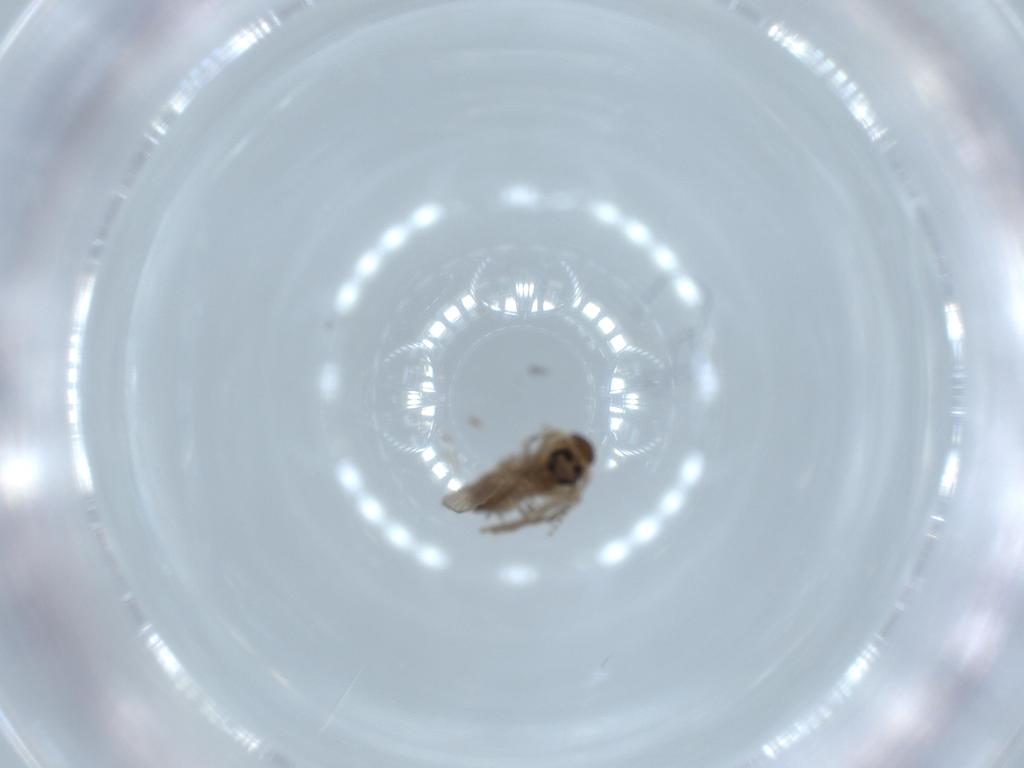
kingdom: Animalia
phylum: Arthropoda
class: Insecta
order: Diptera
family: Psychodidae
